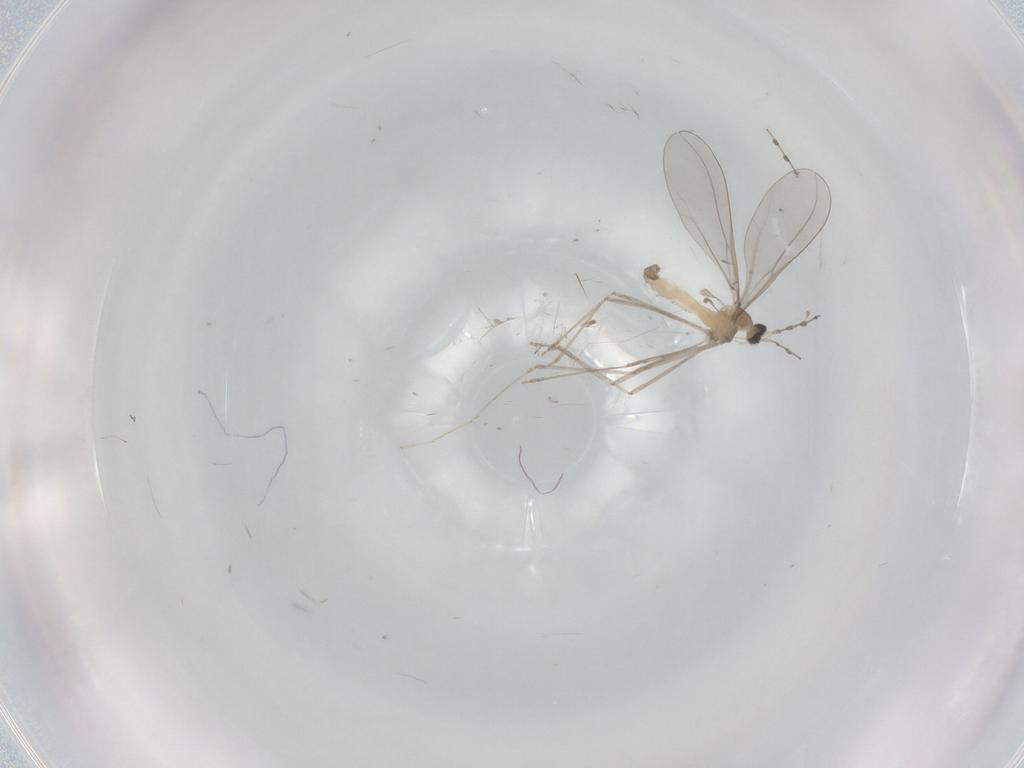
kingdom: Animalia
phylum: Arthropoda
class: Insecta
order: Diptera
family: Cecidomyiidae
